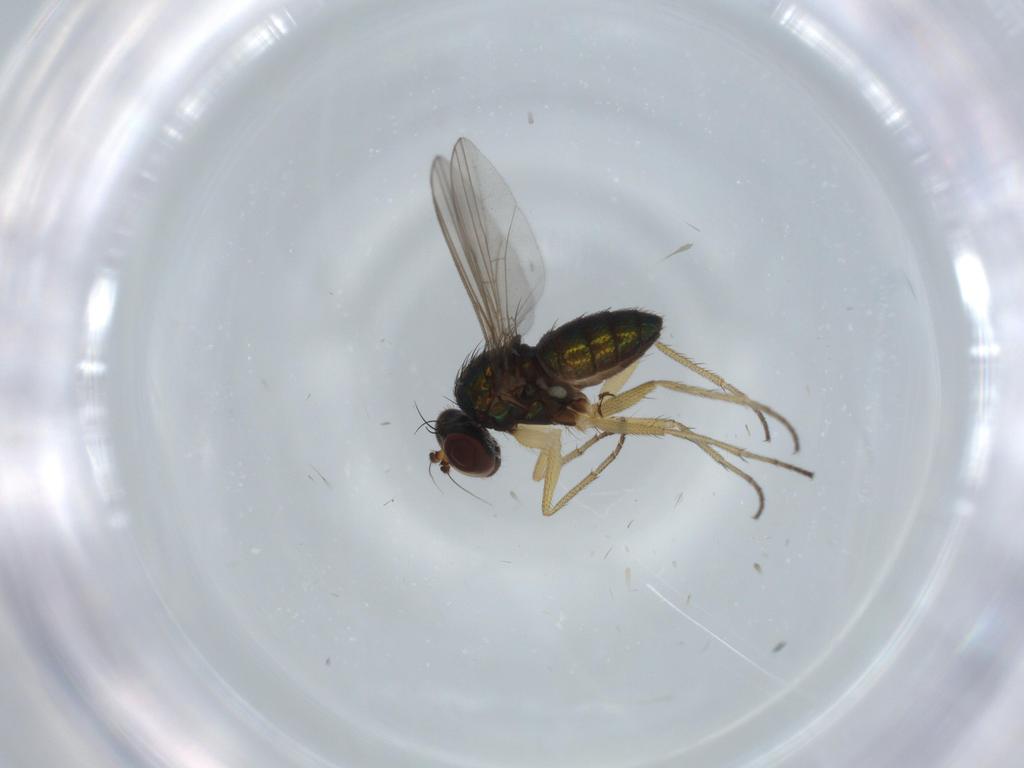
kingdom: Animalia
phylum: Arthropoda
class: Insecta
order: Diptera
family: Dolichopodidae
